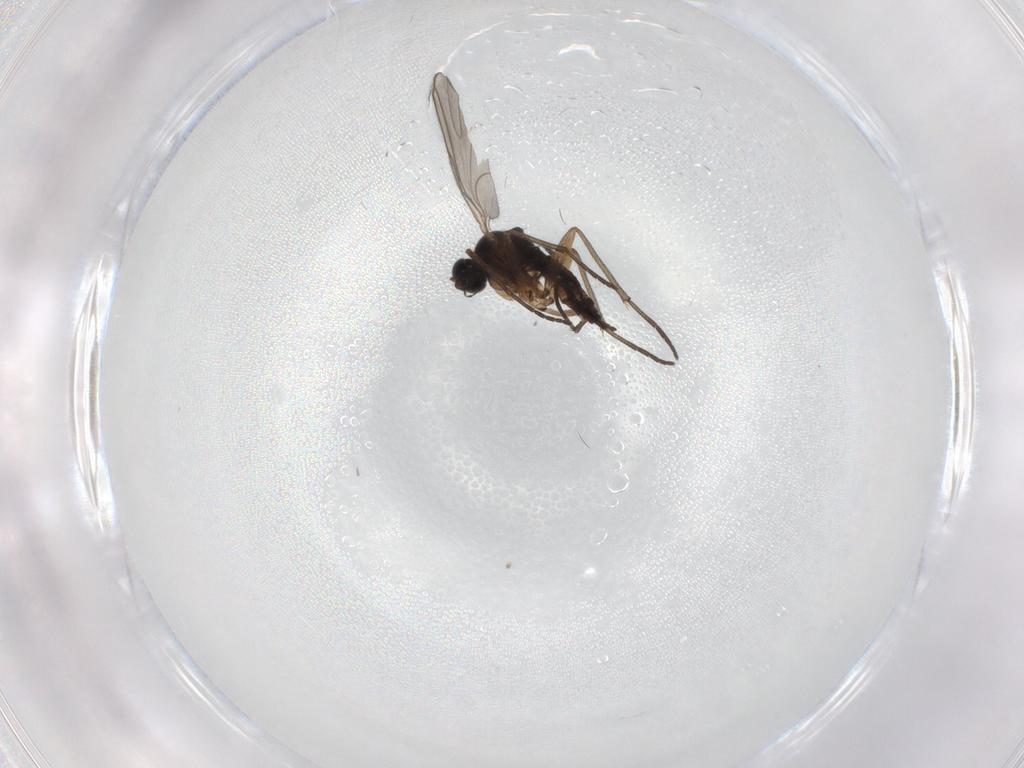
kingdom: Animalia
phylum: Arthropoda
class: Insecta
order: Diptera
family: Sciaridae
